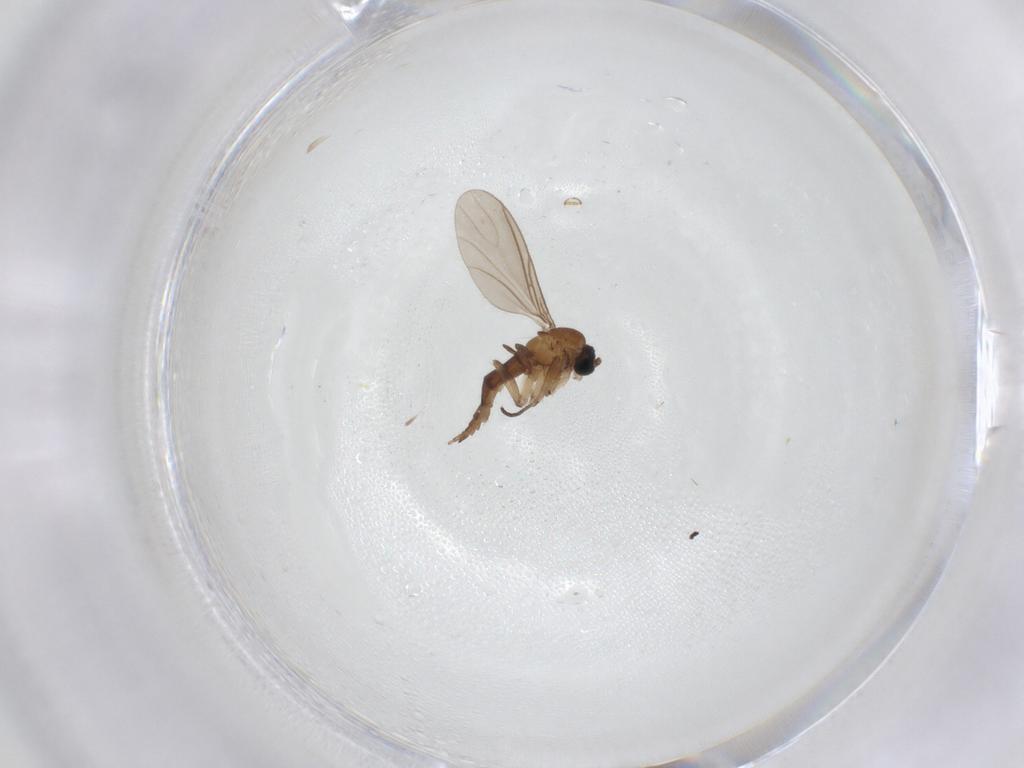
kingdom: Animalia
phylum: Arthropoda
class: Insecta
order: Diptera
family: Sciaridae
